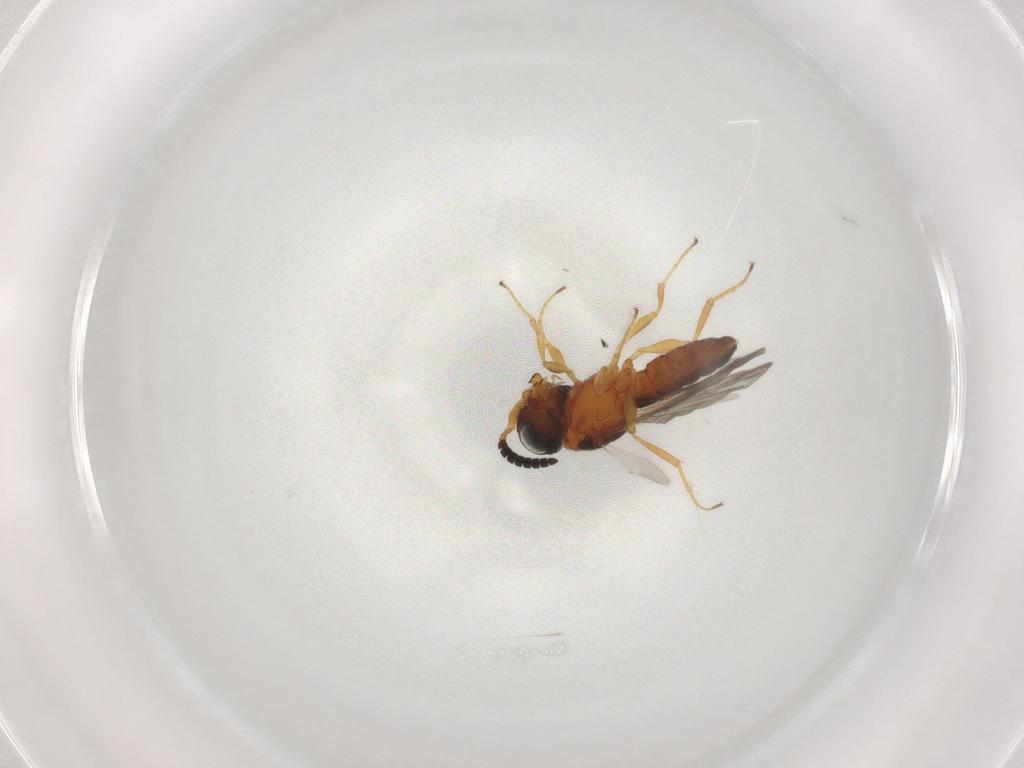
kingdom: Animalia
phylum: Arthropoda
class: Insecta
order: Hymenoptera
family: Scelionidae
